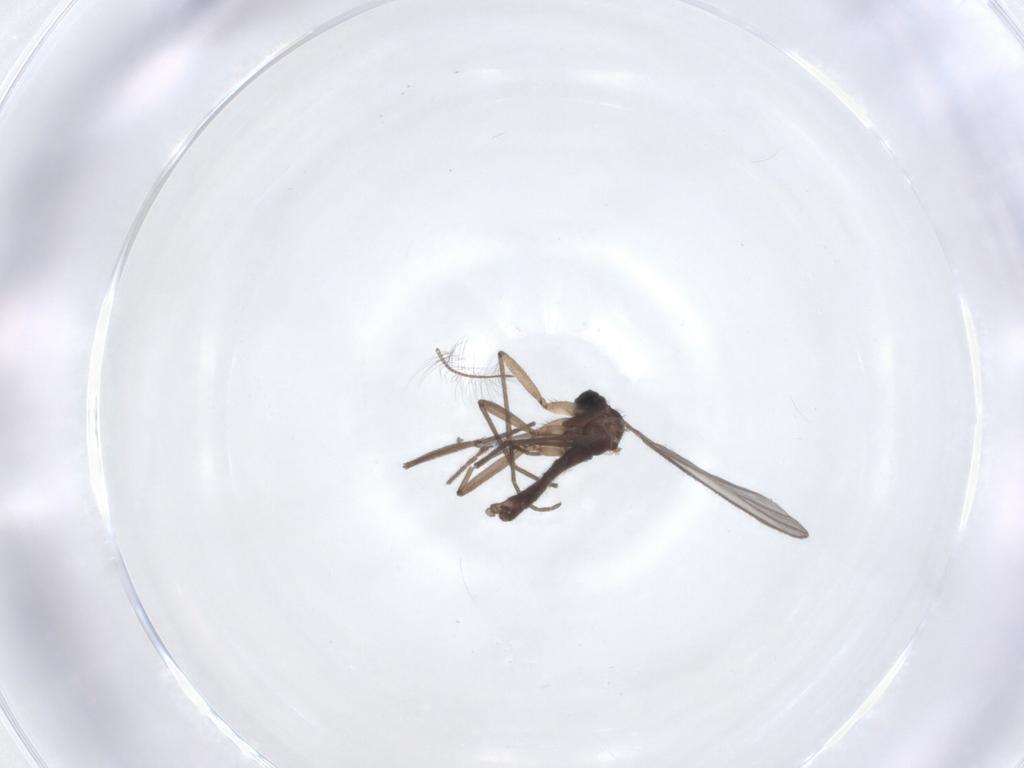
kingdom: Animalia
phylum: Arthropoda
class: Insecta
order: Diptera
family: Sciaridae
